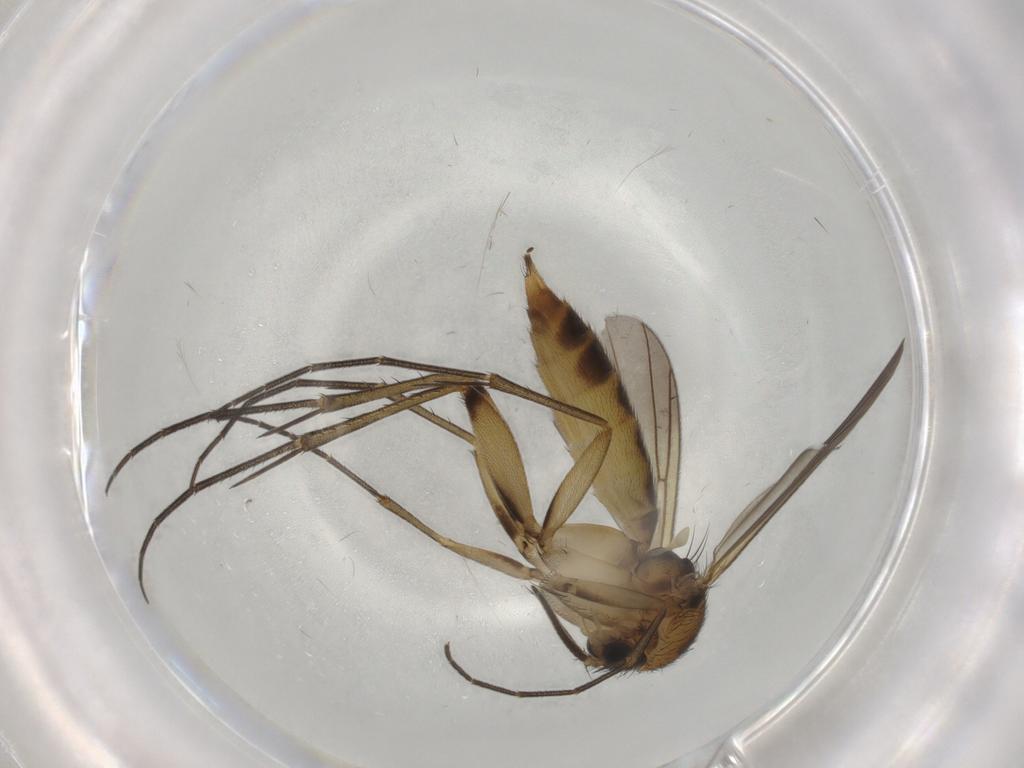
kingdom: Animalia
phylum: Arthropoda
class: Insecta
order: Diptera
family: Mycetophilidae
